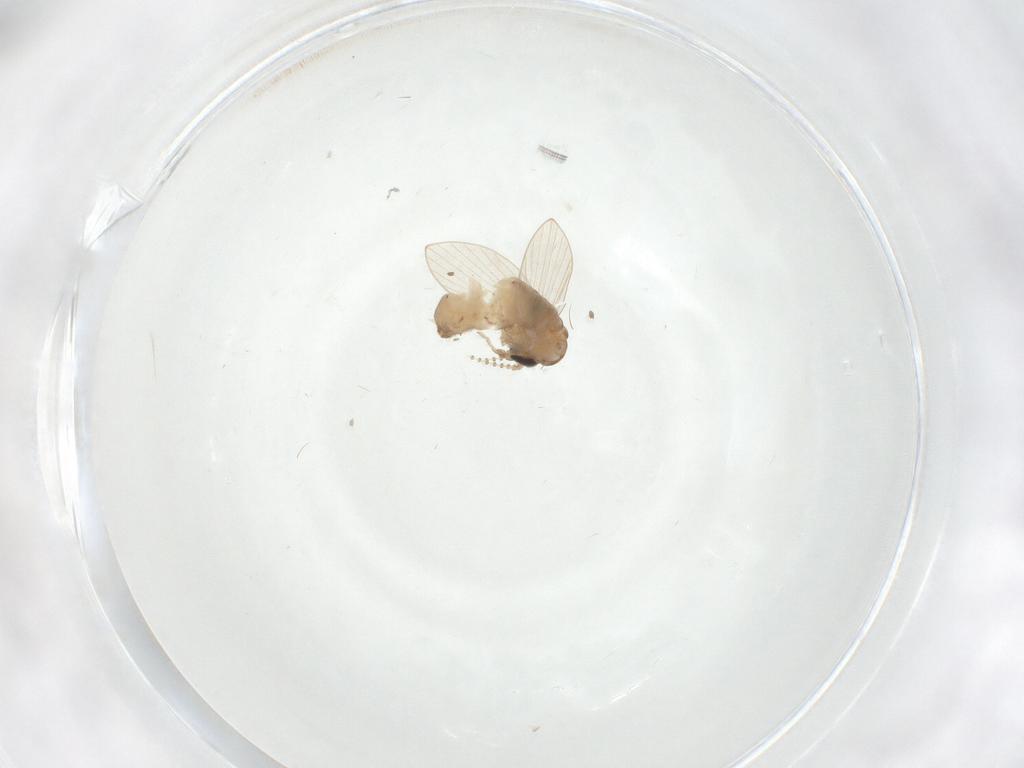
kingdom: Animalia
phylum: Arthropoda
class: Insecta
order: Diptera
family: Psychodidae
